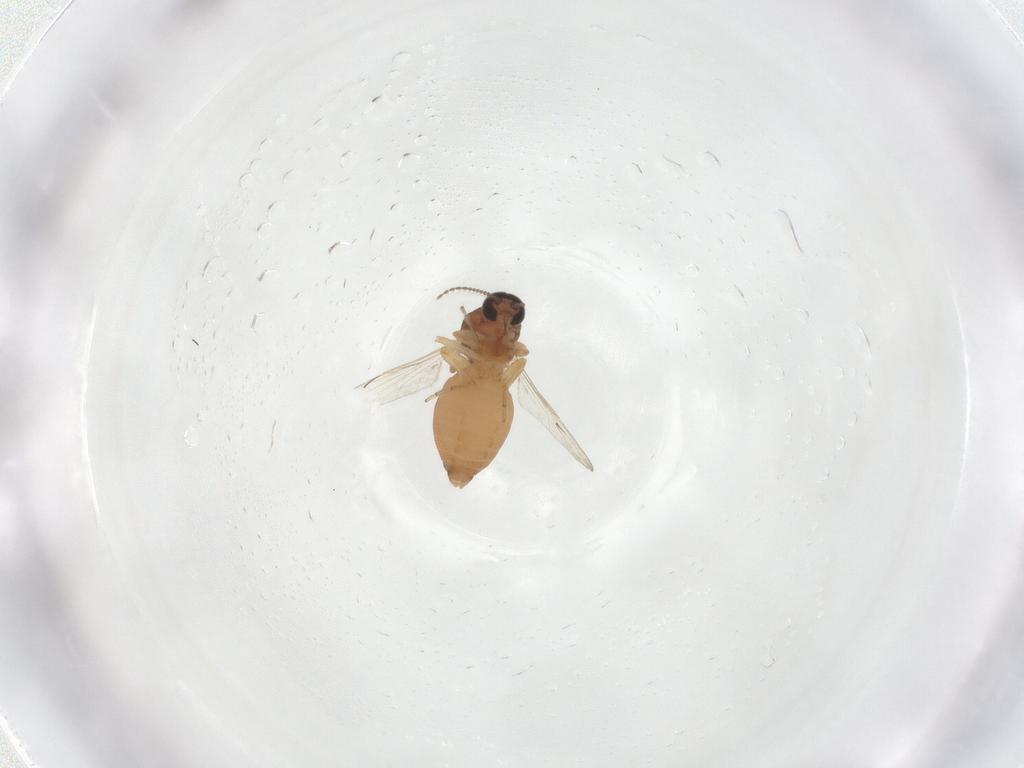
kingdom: Animalia
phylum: Arthropoda
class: Insecta
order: Diptera
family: Ceratopogonidae
